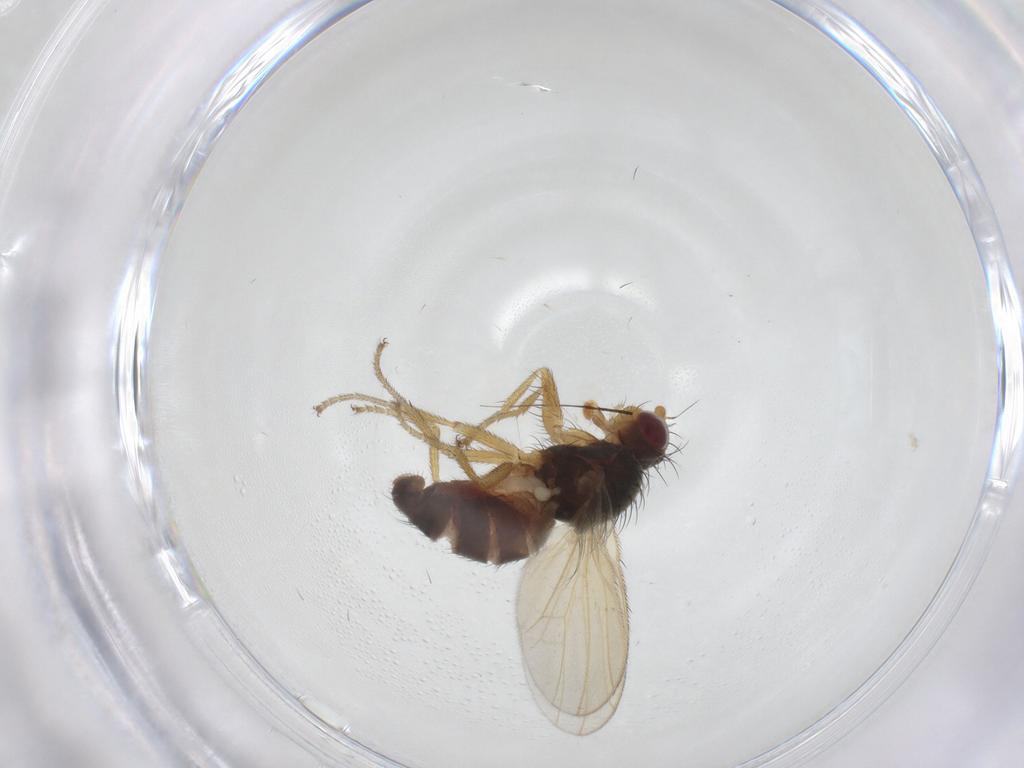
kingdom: Animalia
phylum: Arthropoda
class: Insecta
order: Diptera
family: Heleomyzidae
